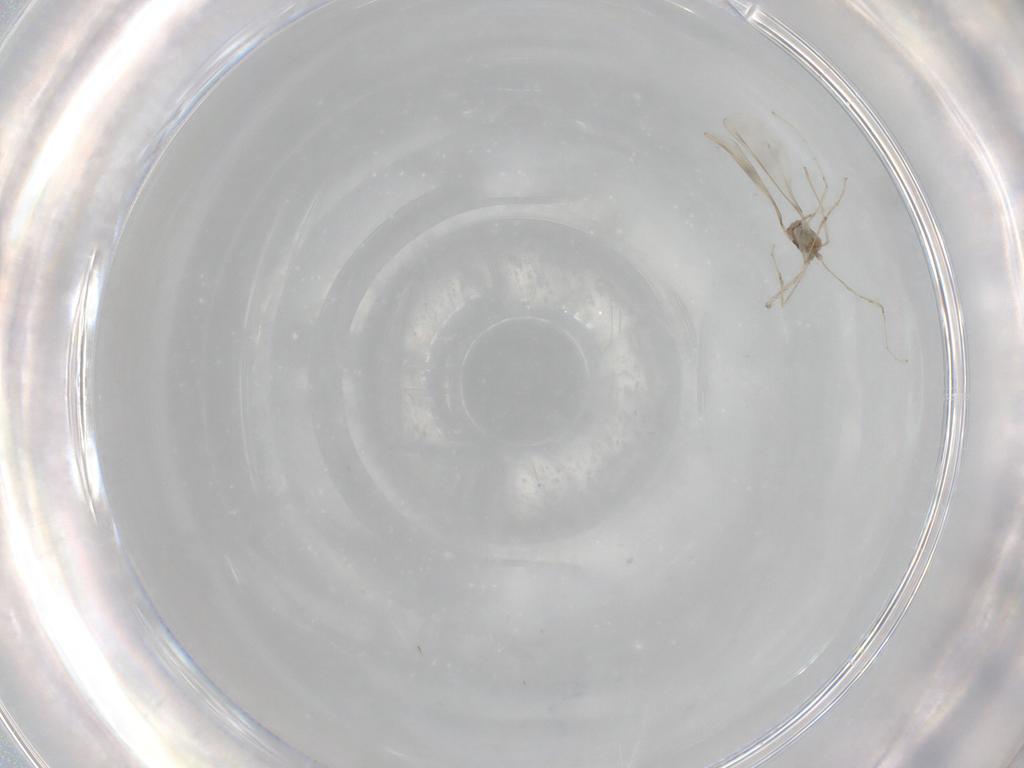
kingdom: Animalia
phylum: Arthropoda
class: Insecta
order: Diptera
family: Cecidomyiidae
